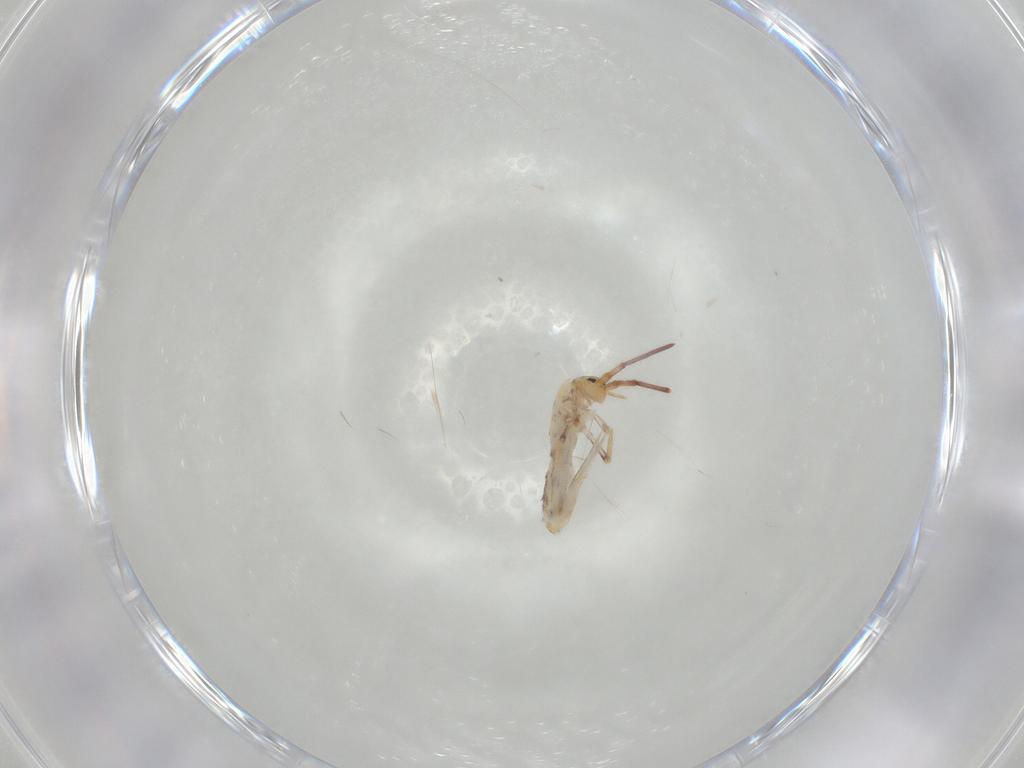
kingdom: Animalia
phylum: Arthropoda
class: Collembola
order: Poduromorpha
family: Hypogastruridae
